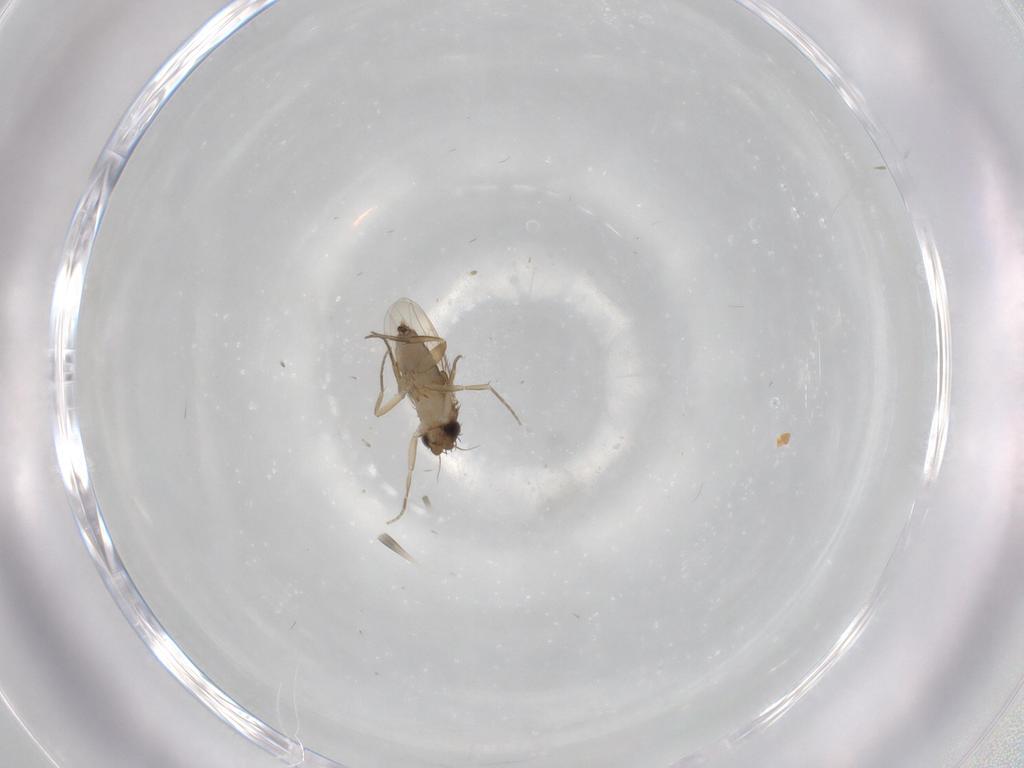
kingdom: Animalia
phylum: Arthropoda
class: Insecta
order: Diptera
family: Phoridae
